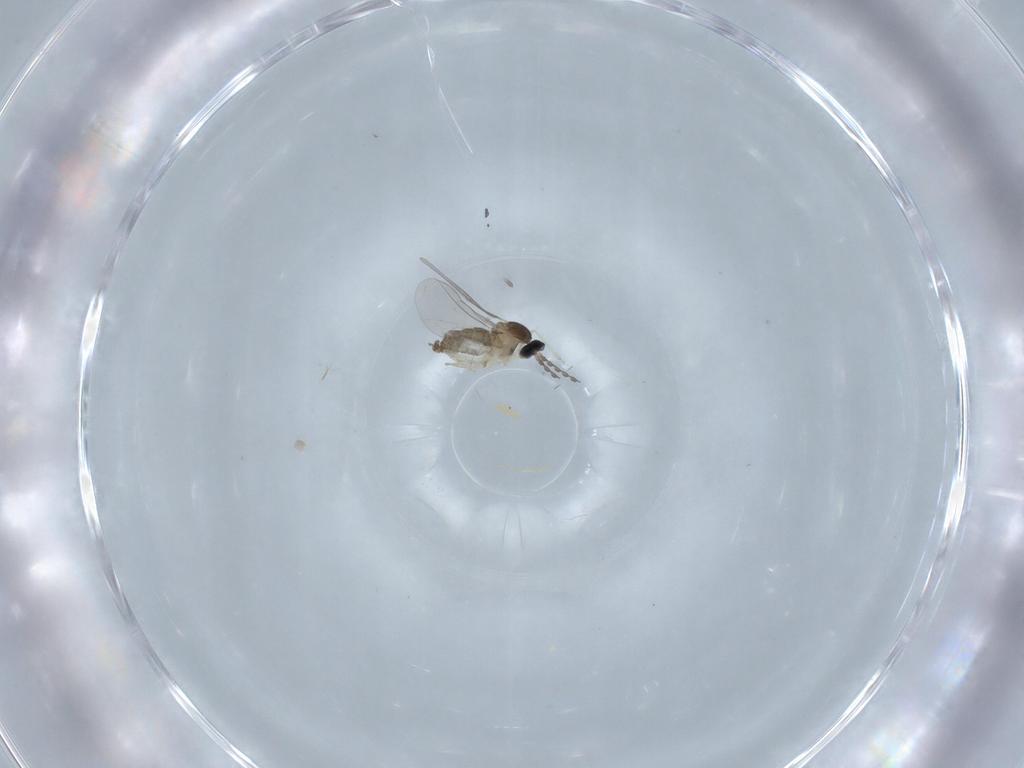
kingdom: Animalia
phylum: Arthropoda
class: Insecta
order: Diptera
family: Cecidomyiidae
